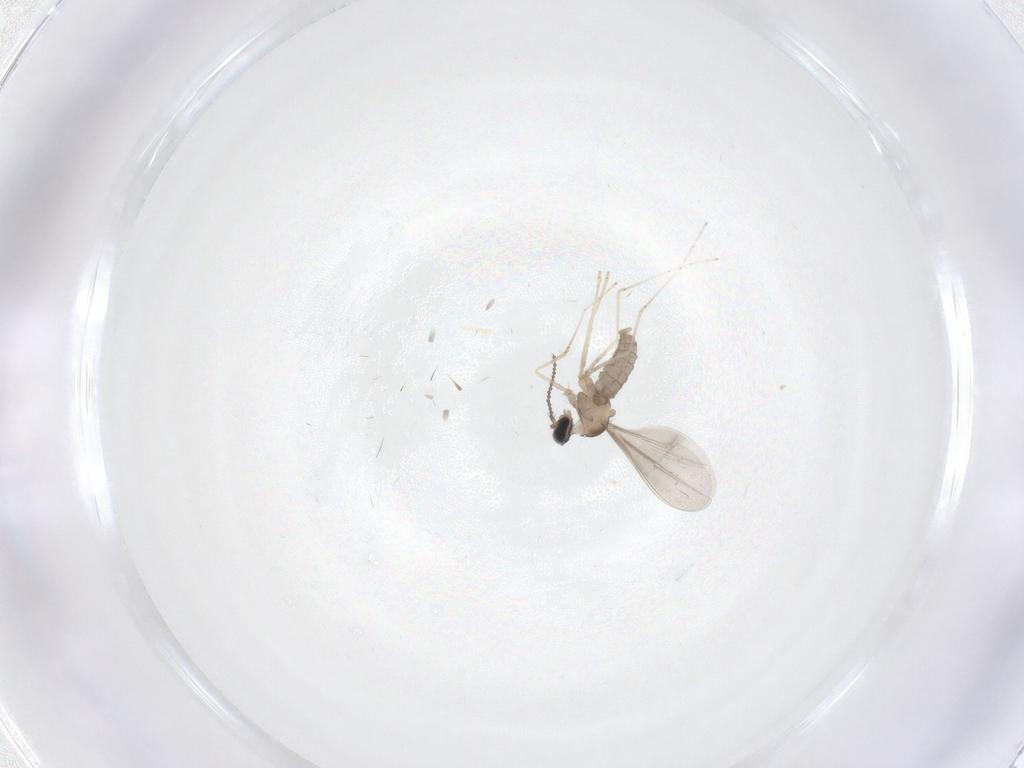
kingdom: Animalia
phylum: Arthropoda
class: Insecta
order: Diptera
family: Cecidomyiidae
